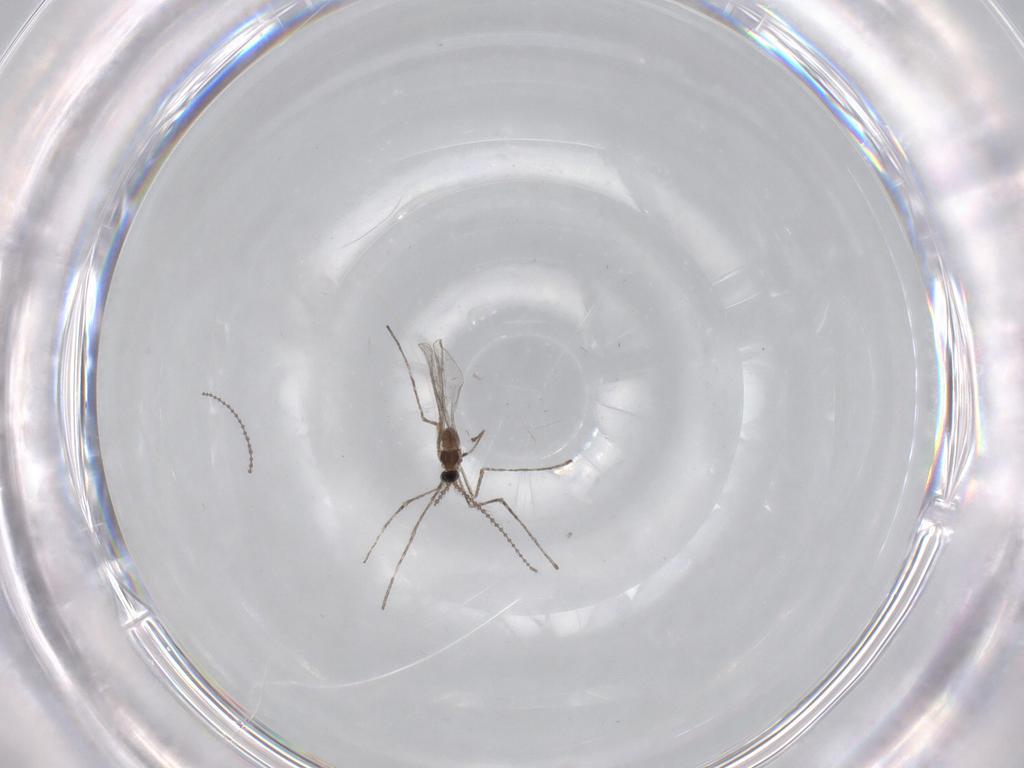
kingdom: Animalia
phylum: Arthropoda
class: Insecta
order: Diptera
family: Cecidomyiidae
